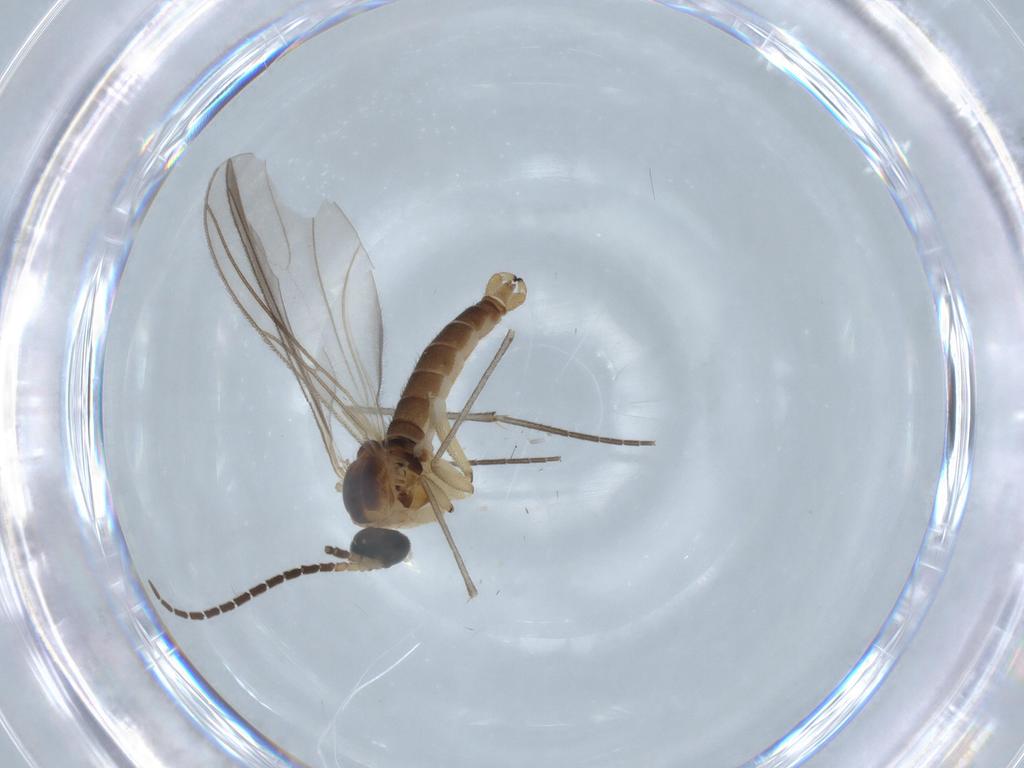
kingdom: Animalia
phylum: Arthropoda
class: Insecta
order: Diptera
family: Sciaridae
